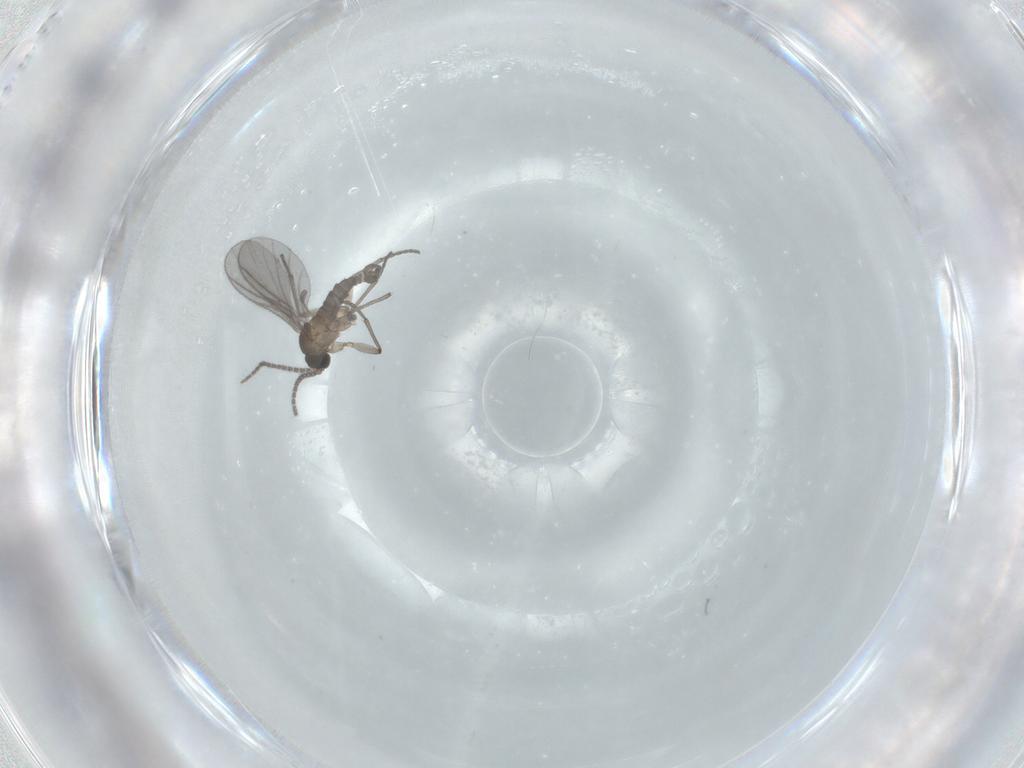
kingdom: Animalia
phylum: Arthropoda
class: Insecta
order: Diptera
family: Sciaridae
